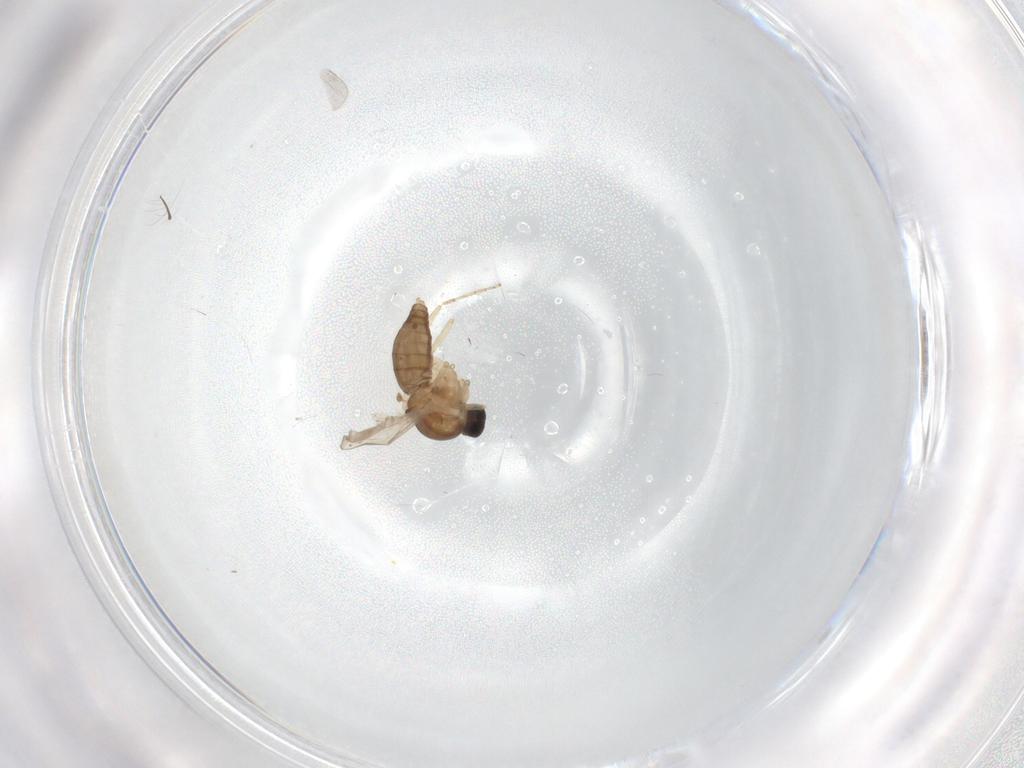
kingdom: Animalia
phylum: Arthropoda
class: Insecta
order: Diptera
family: Chironomidae
